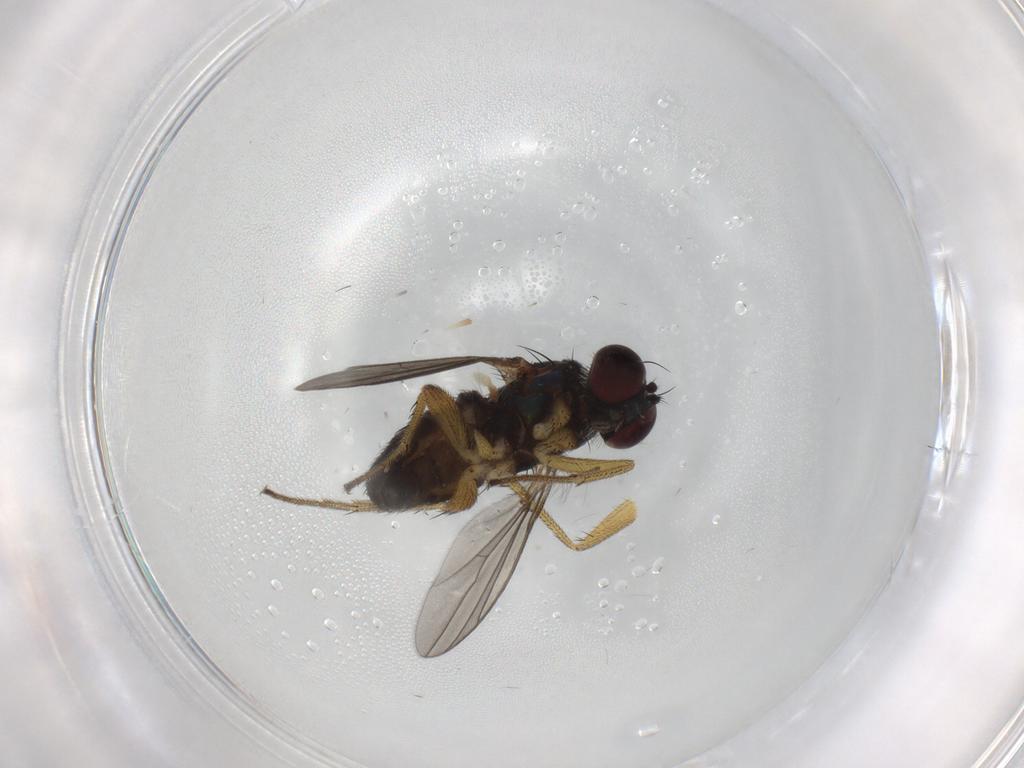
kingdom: Animalia
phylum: Arthropoda
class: Insecta
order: Diptera
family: Dolichopodidae
